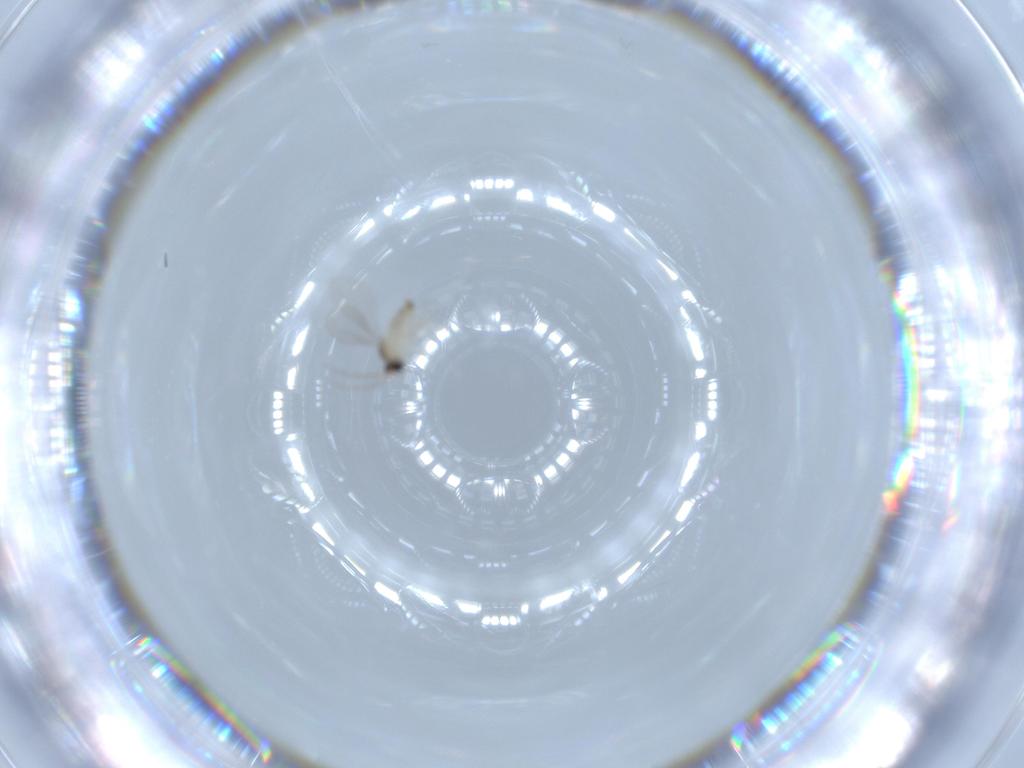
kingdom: Animalia
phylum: Arthropoda
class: Insecta
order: Diptera
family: Cecidomyiidae
